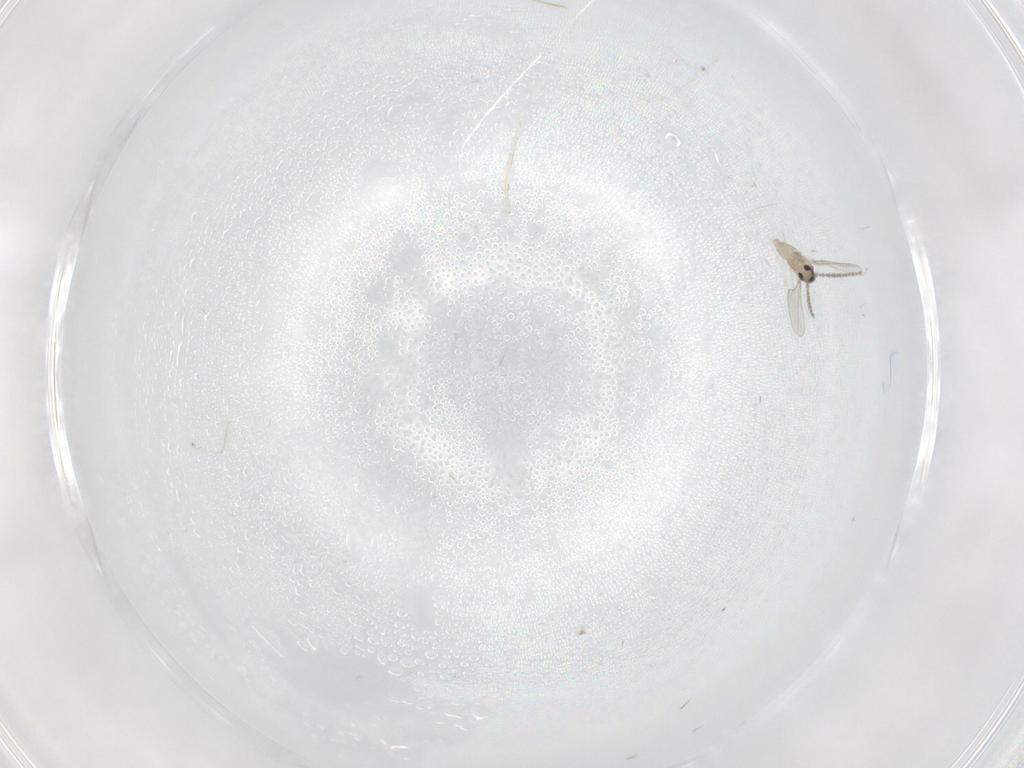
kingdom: Animalia
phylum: Arthropoda
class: Insecta
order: Diptera
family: Cecidomyiidae
